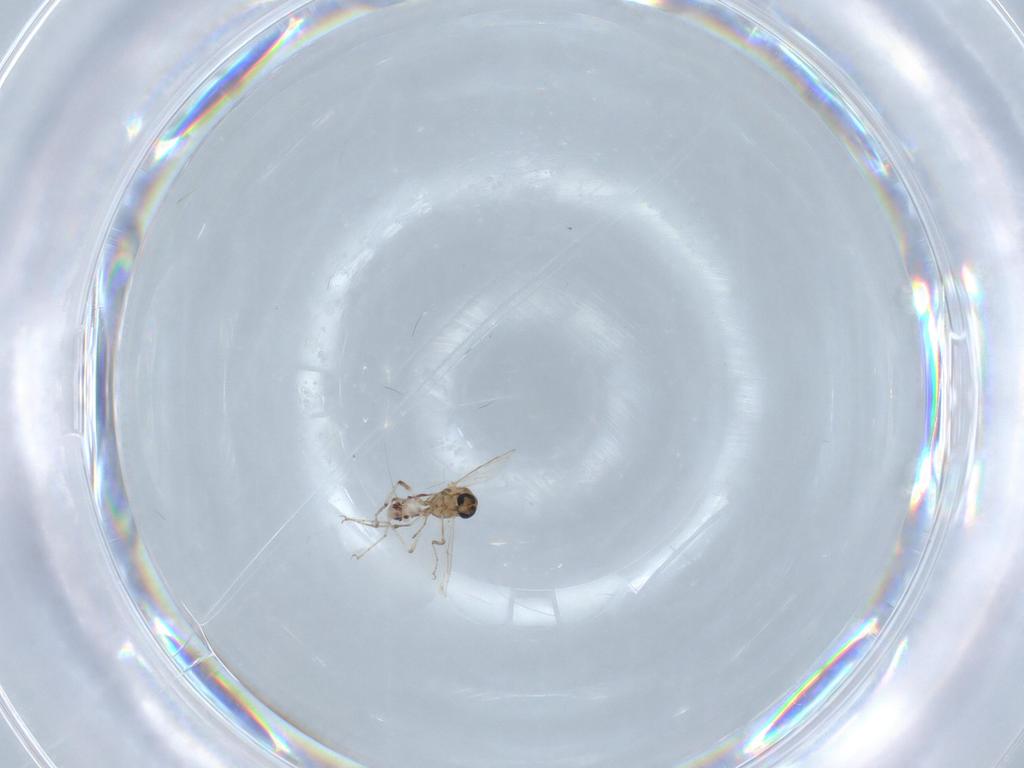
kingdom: Animalia
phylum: Arthropoda
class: Insecta
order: Diptera
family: Ceratopogonidae
